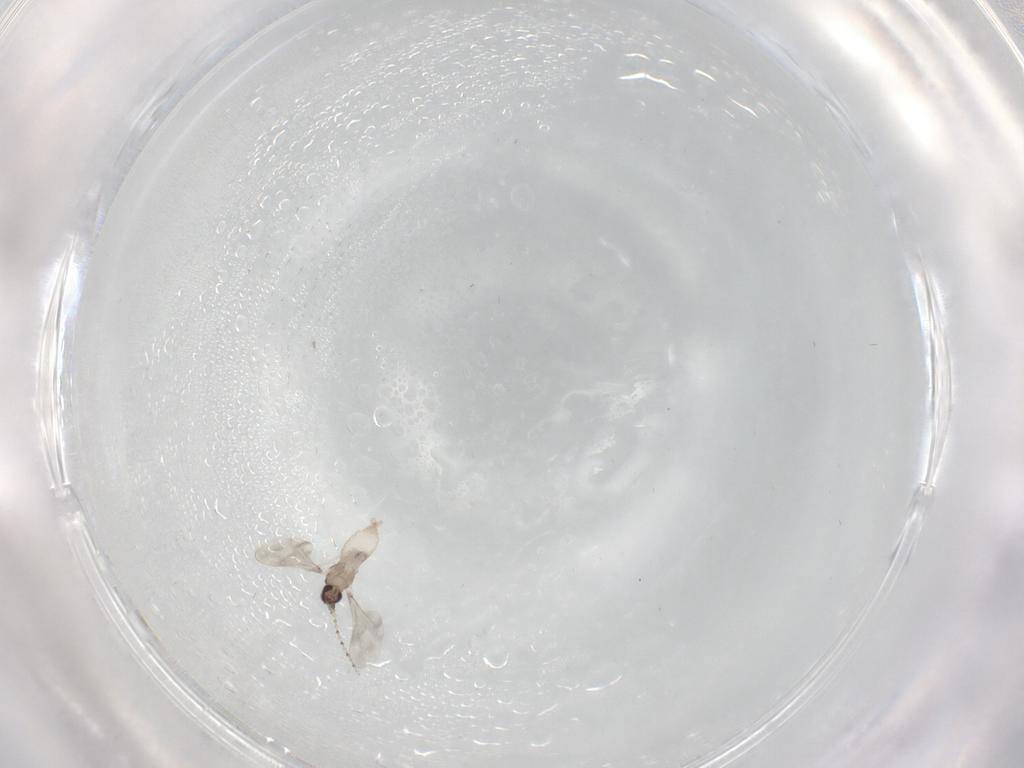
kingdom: Animalia
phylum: Arthropoda
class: Insecta
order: Diptera
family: Cecidomyiidae
